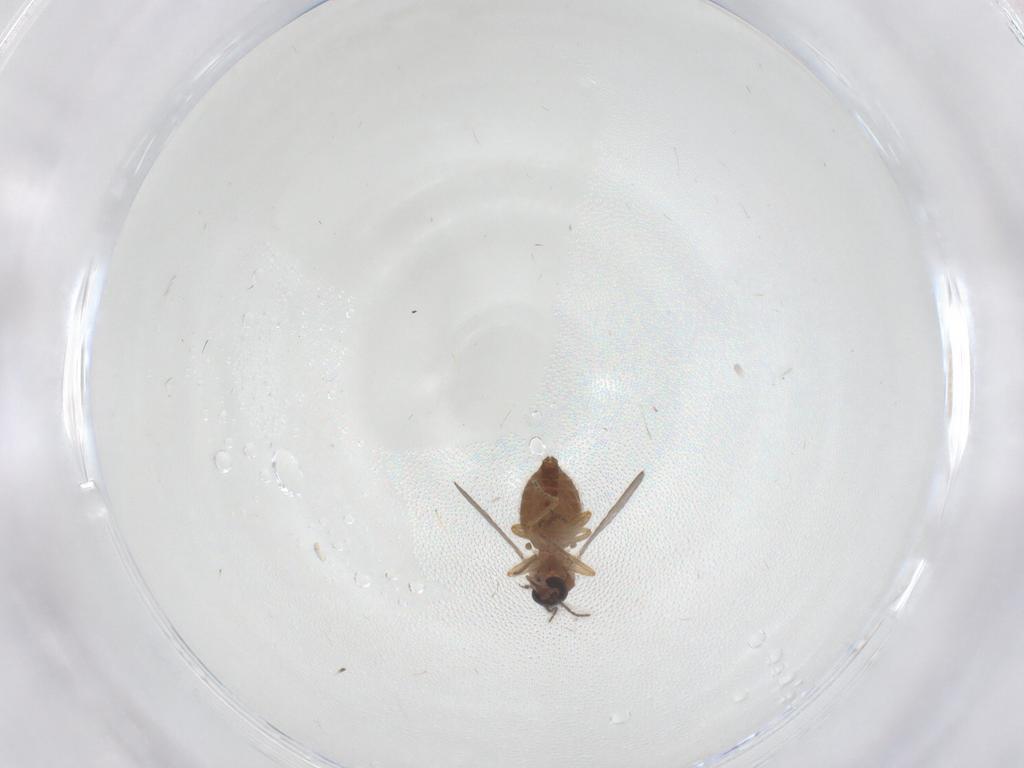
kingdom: Animalia
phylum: Arthropoda
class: Insecta
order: Diptera
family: Ceratopogonidae
